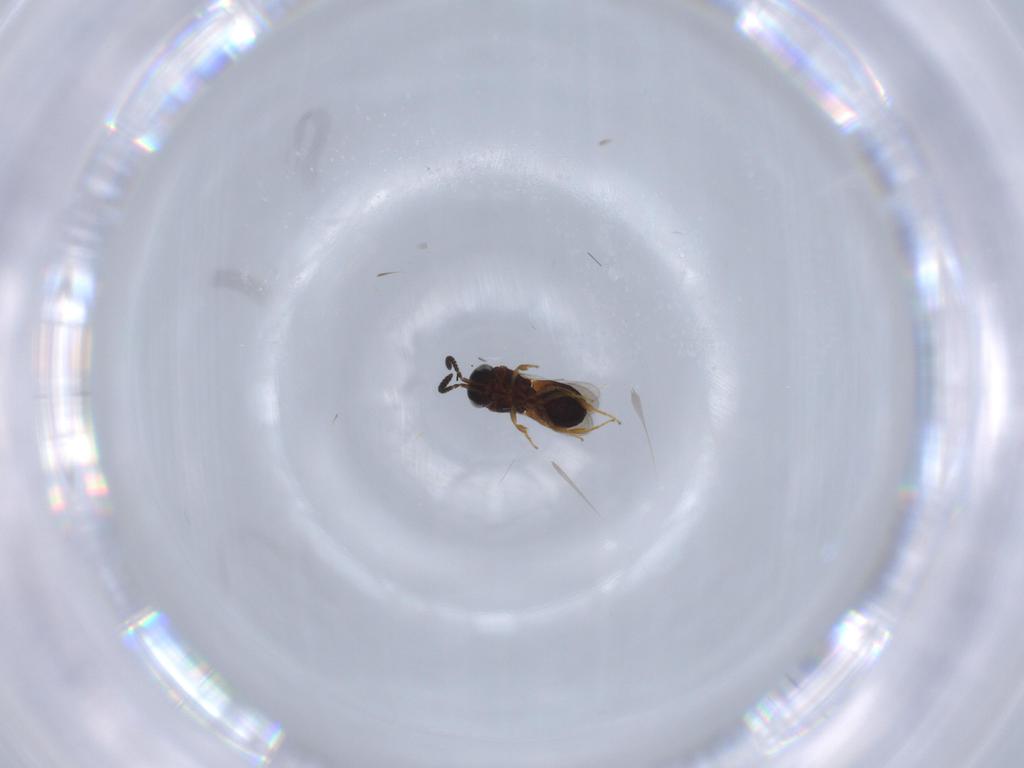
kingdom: Animalia
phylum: Arthropoda
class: Insecta
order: Hymenoptera
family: Scelionidae
